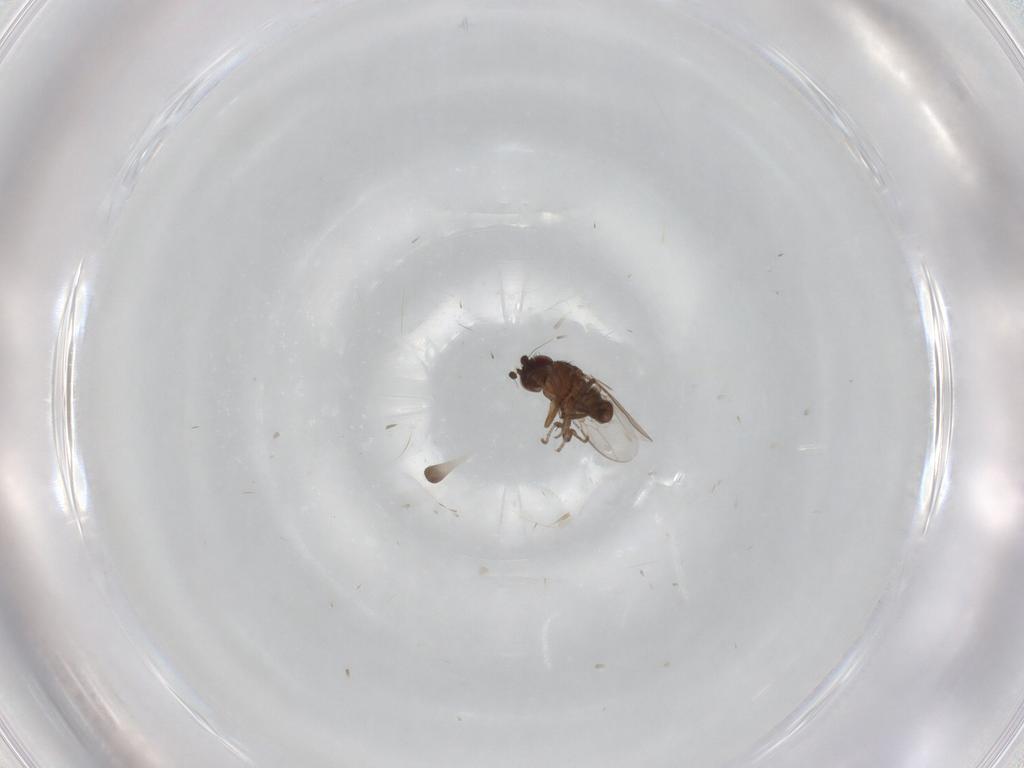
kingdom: Animalia
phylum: Arthropoda
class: Insecta
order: Diptera
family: Sphaeroceridae
